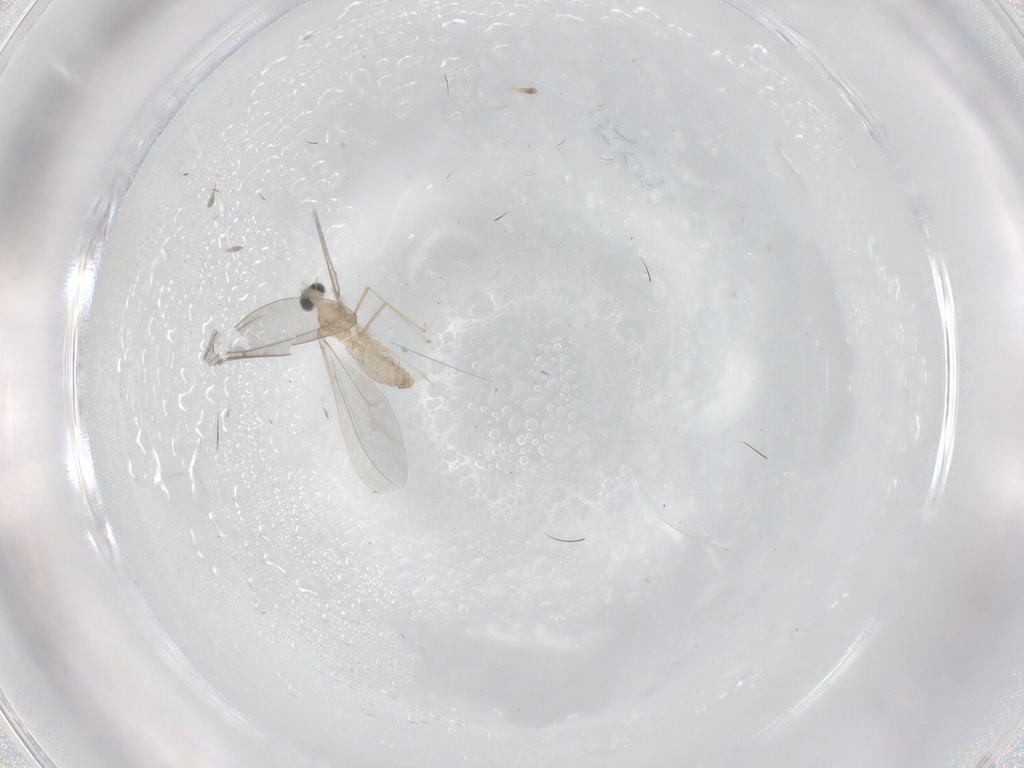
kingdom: Animalia
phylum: Arthropoda
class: Insecta
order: Diptera
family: Cecidomyiidae
